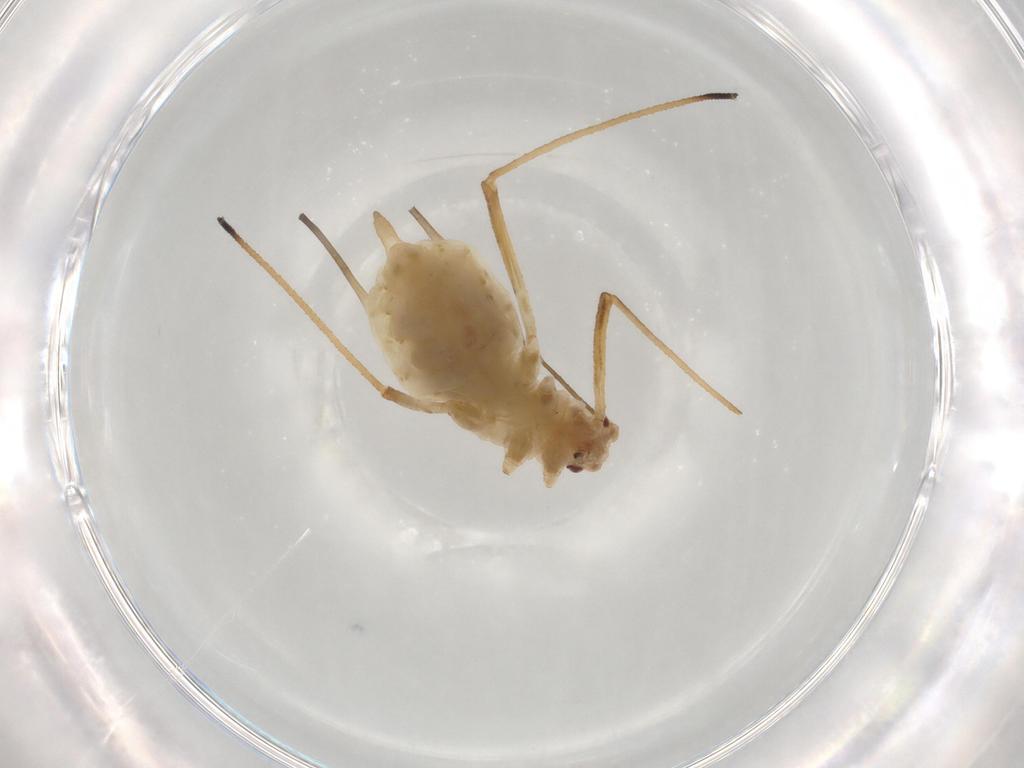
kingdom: Animalia
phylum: Arthropoda
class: Insecta
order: Hemiptera
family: Aphididae
